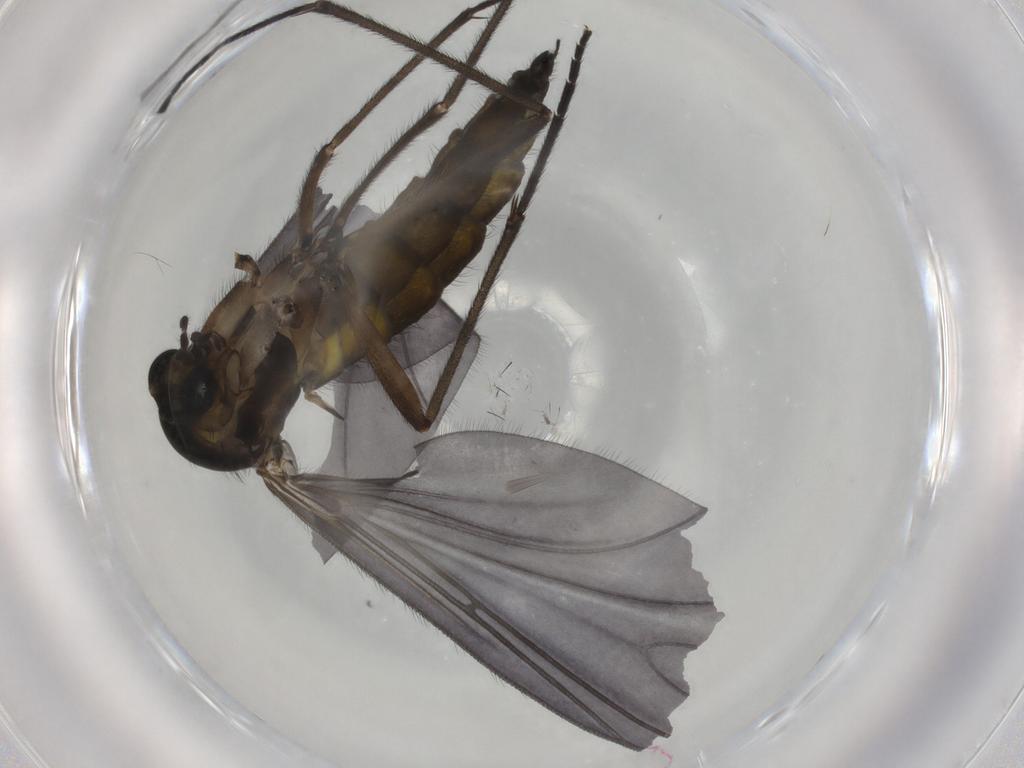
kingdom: Animalia
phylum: Arthropoda
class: Insecta
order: Diptera
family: Sciaridae
